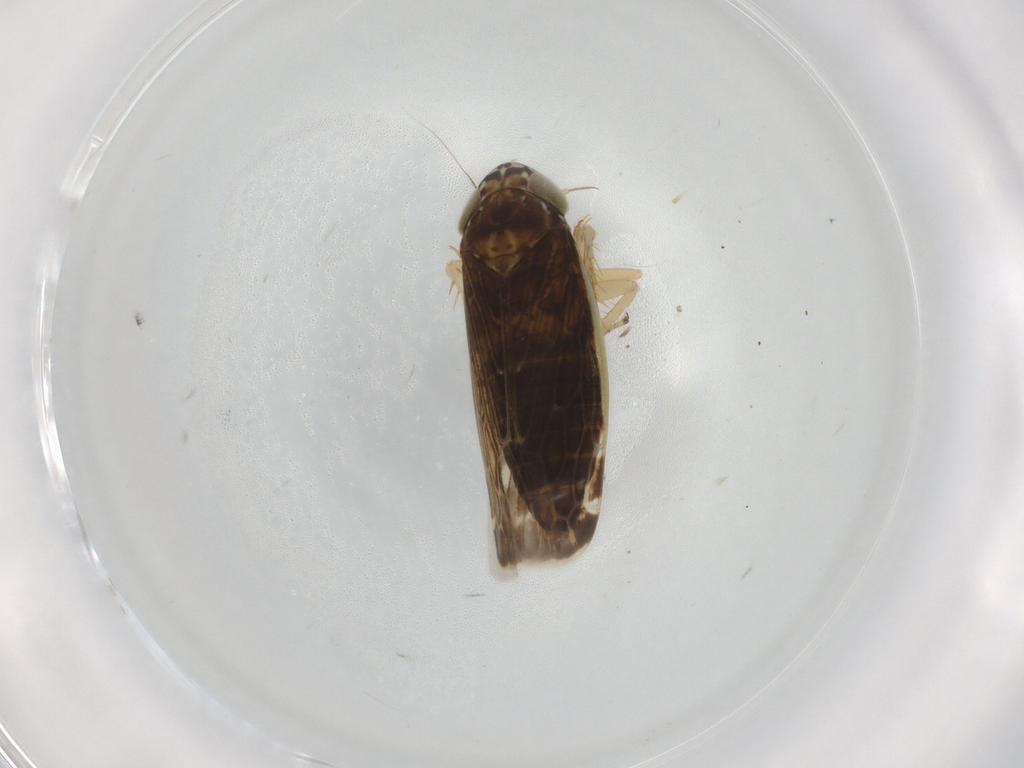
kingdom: Animalia
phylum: Arthropoda
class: Insecta
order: Hemiptera
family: Cicadellidae
